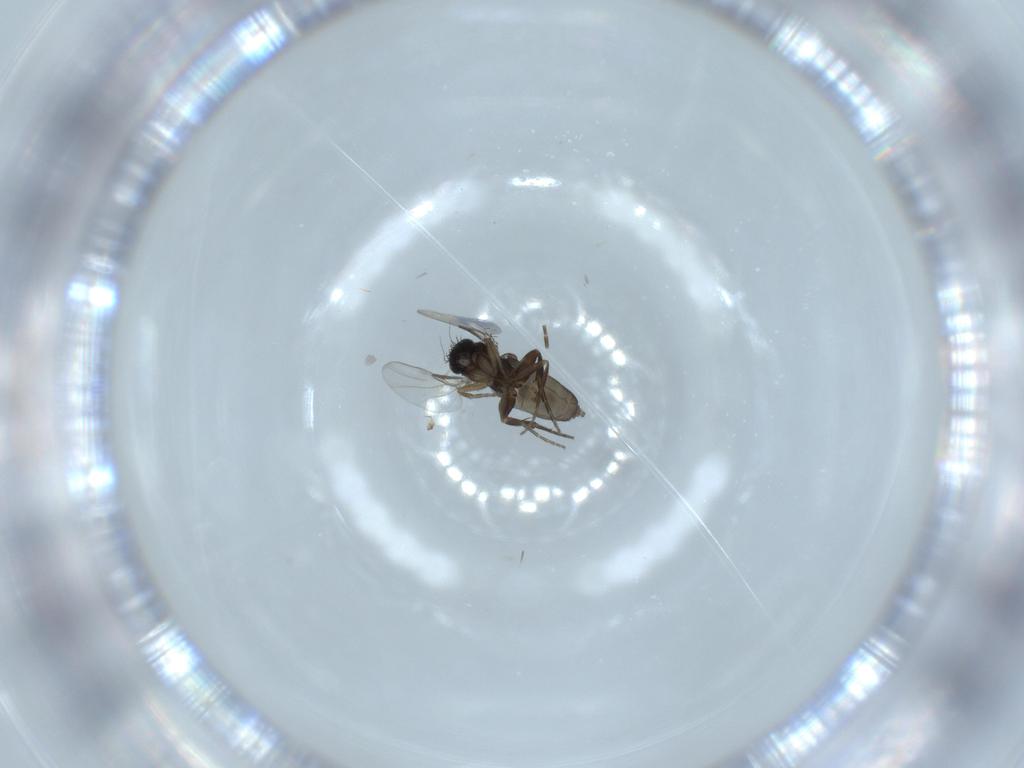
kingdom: Animalia
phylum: Arthropoda
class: Insecta
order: Diptera
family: Phoridae
